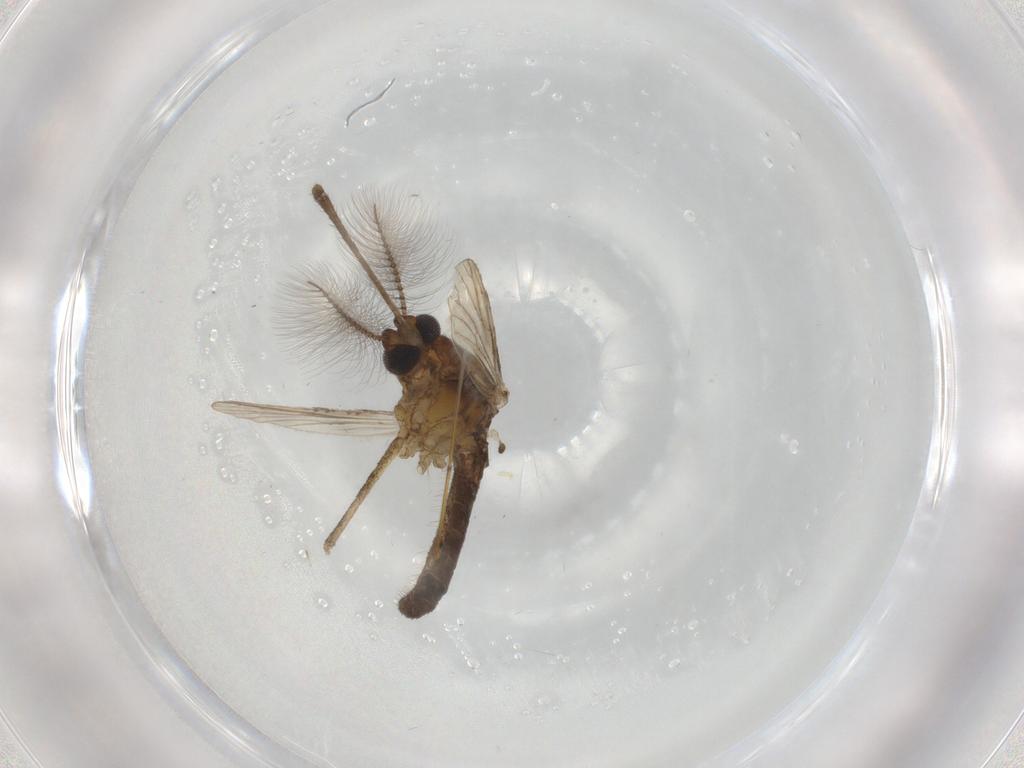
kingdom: Animalia
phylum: Arthropoda
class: Insecta
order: Diptera
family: Chironomidae
